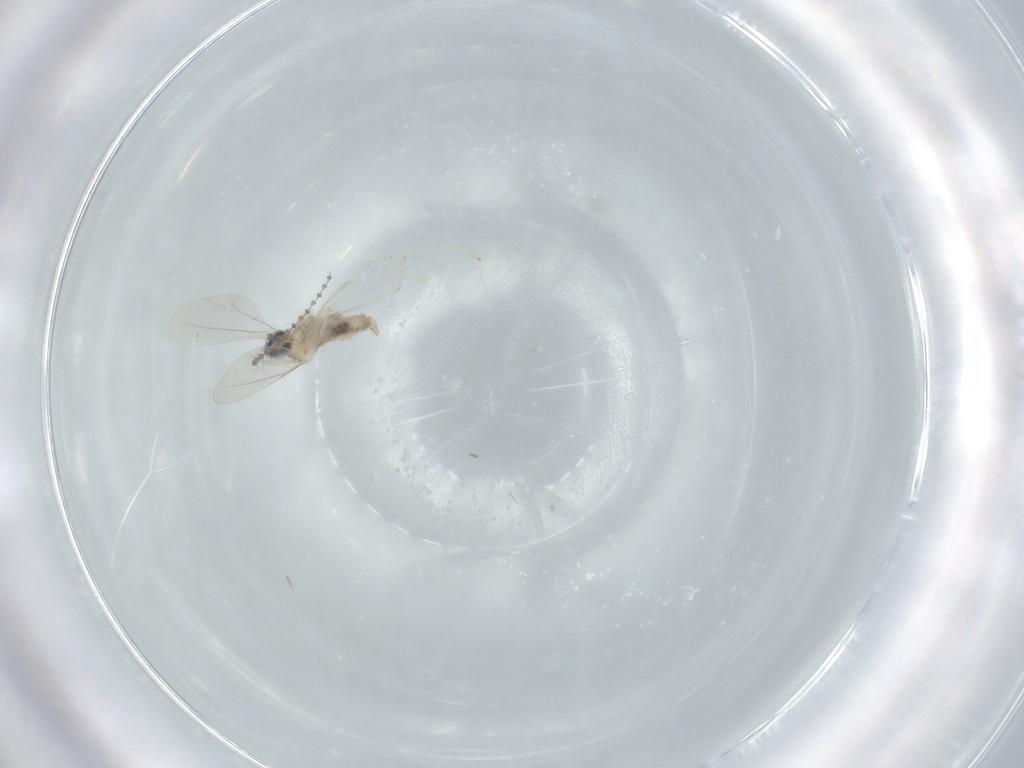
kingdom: Animalia
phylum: Arthropoda
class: Insecta
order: Diptera
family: Cecidomyiidae
